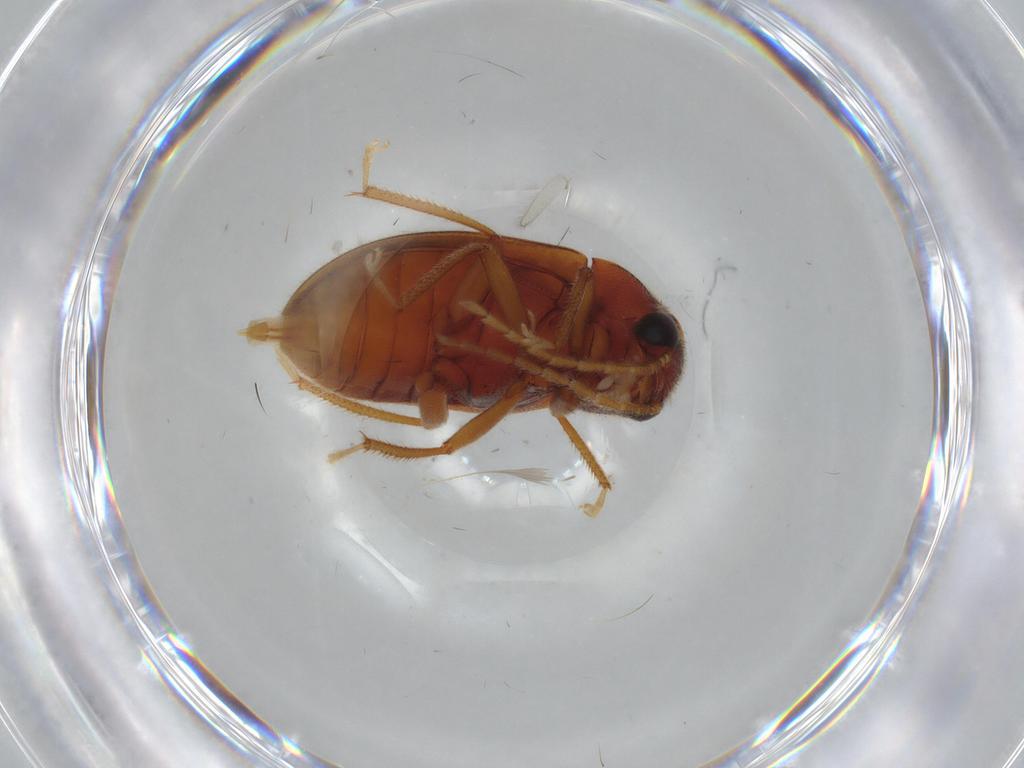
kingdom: Animalia
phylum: Arthropoda
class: Insecta
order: Coleoptera
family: Ptilodactylidae
